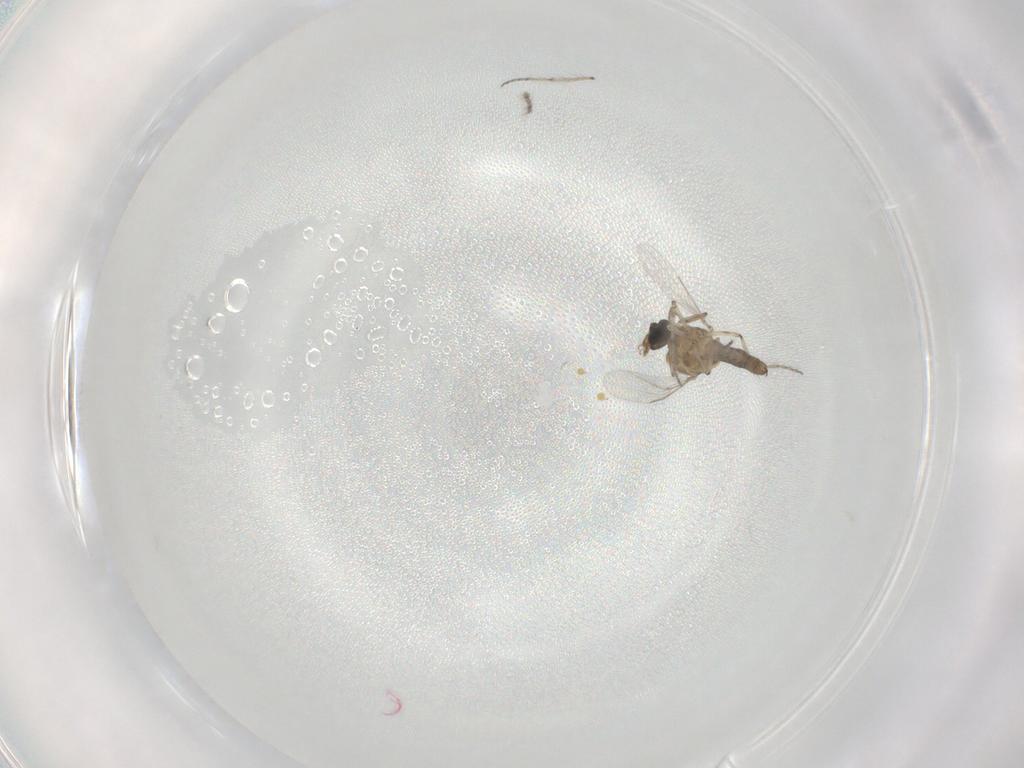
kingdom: Animalia
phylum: Arthropoda
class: Insecta
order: Diptera
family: Ceratopogonidae
